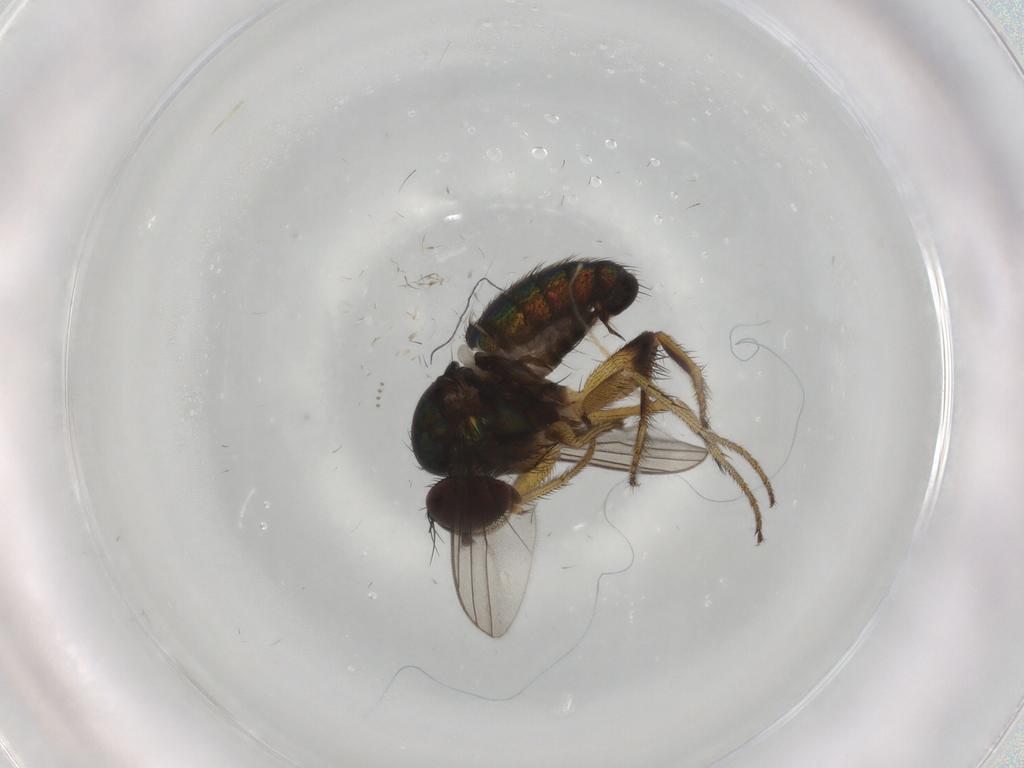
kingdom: Animalia
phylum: Arthropoda
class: Insecta
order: Diptera
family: Dolichopodidae
